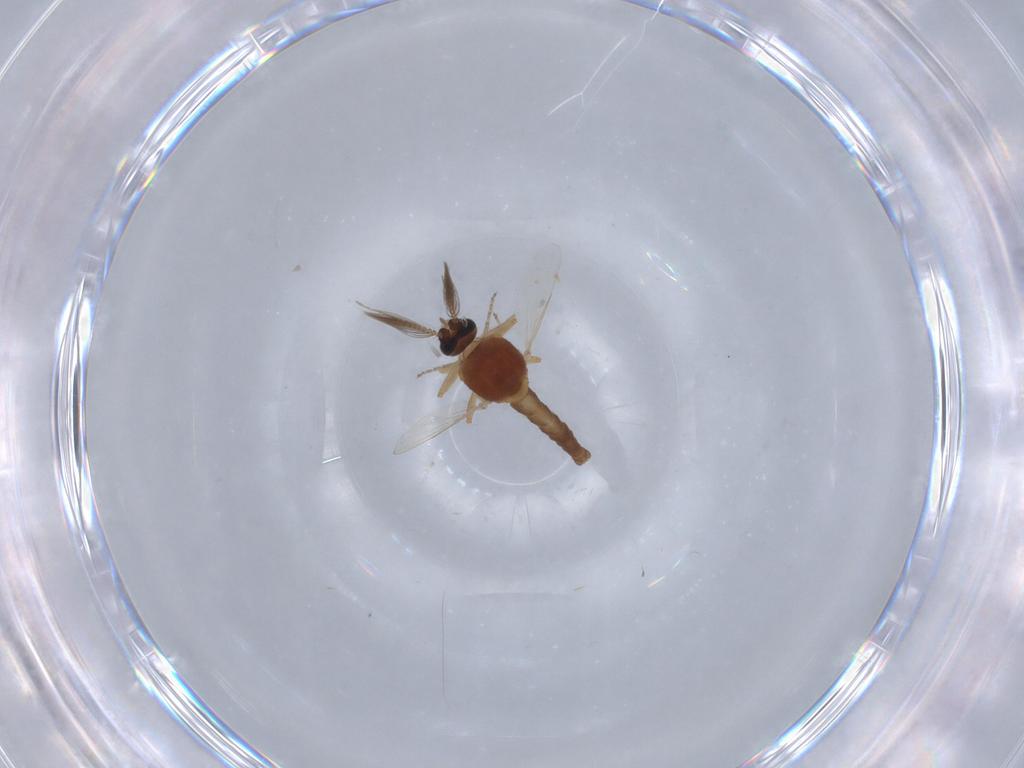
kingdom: Animalia
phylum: Arthropoda
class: Insecta
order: Diptera
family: Ceratopogonidae
